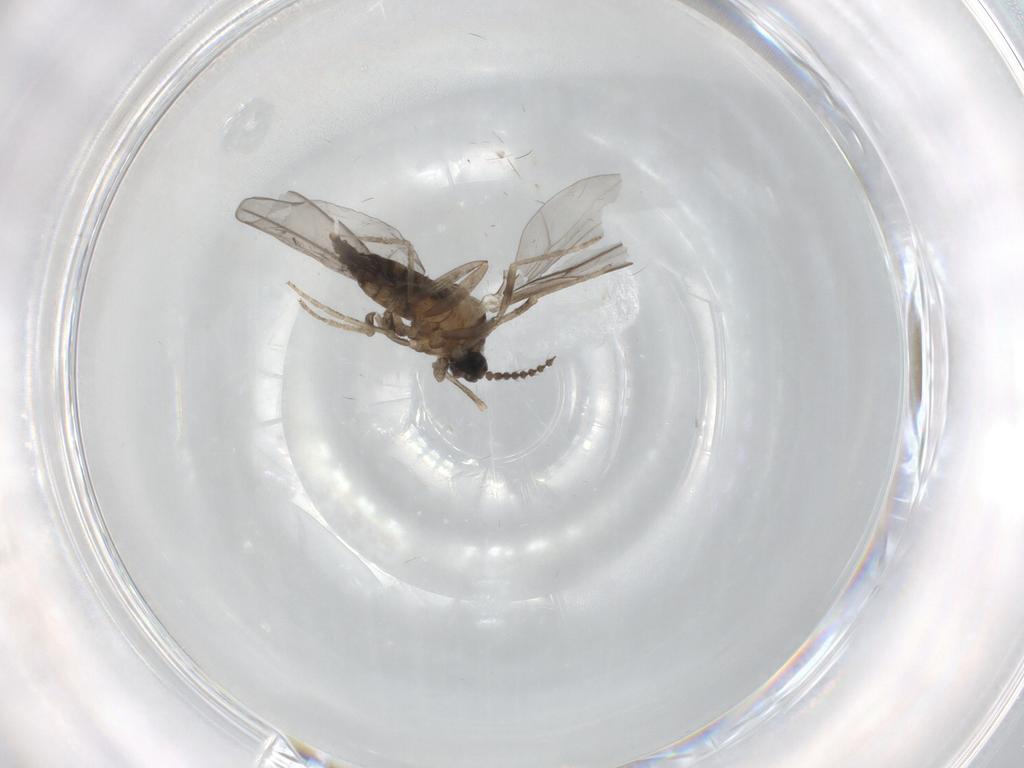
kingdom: Animalia
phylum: Arthropoda
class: Insecta
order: Diptera
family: Cecidomyiidae
